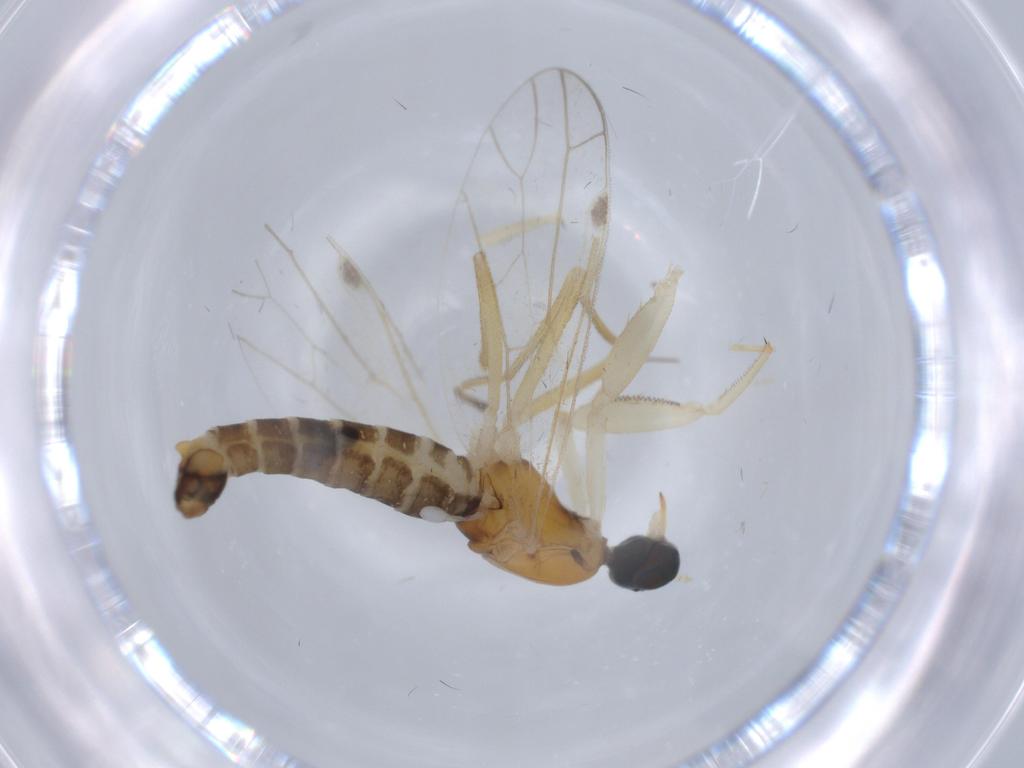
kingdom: Animalia
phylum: Arthropoda
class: Insecta
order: Diptera
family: Empididae
